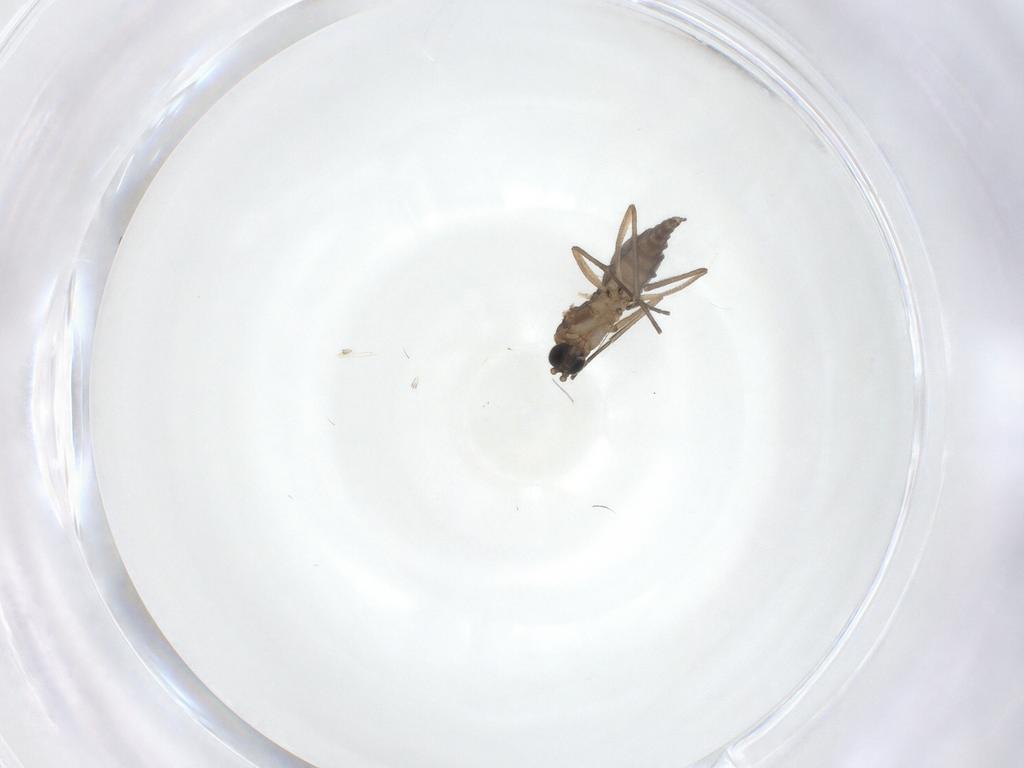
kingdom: Animalia
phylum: Arthropoda
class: Insecta
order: Diptera
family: Sciaridae
